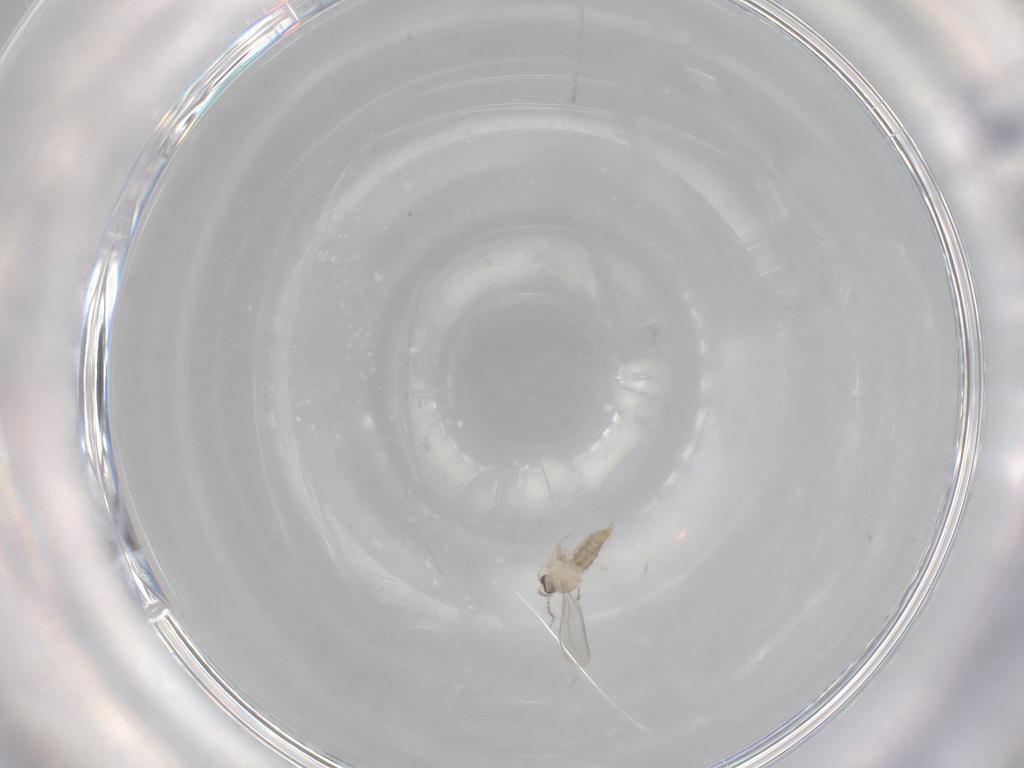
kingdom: Animalia
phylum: Arthropoda
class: Insecta
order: Diptera
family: Cecidomyiidae
